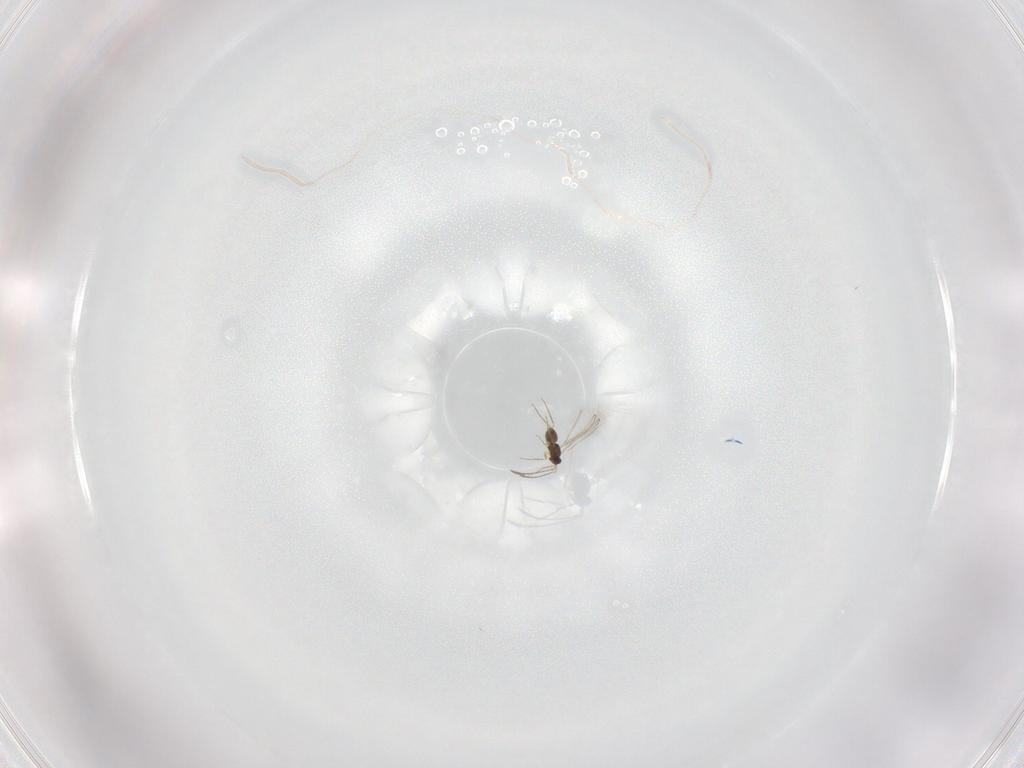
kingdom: Animalia
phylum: Arthropoda
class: Insecta
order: Hymenoptera
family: Mymaridae
